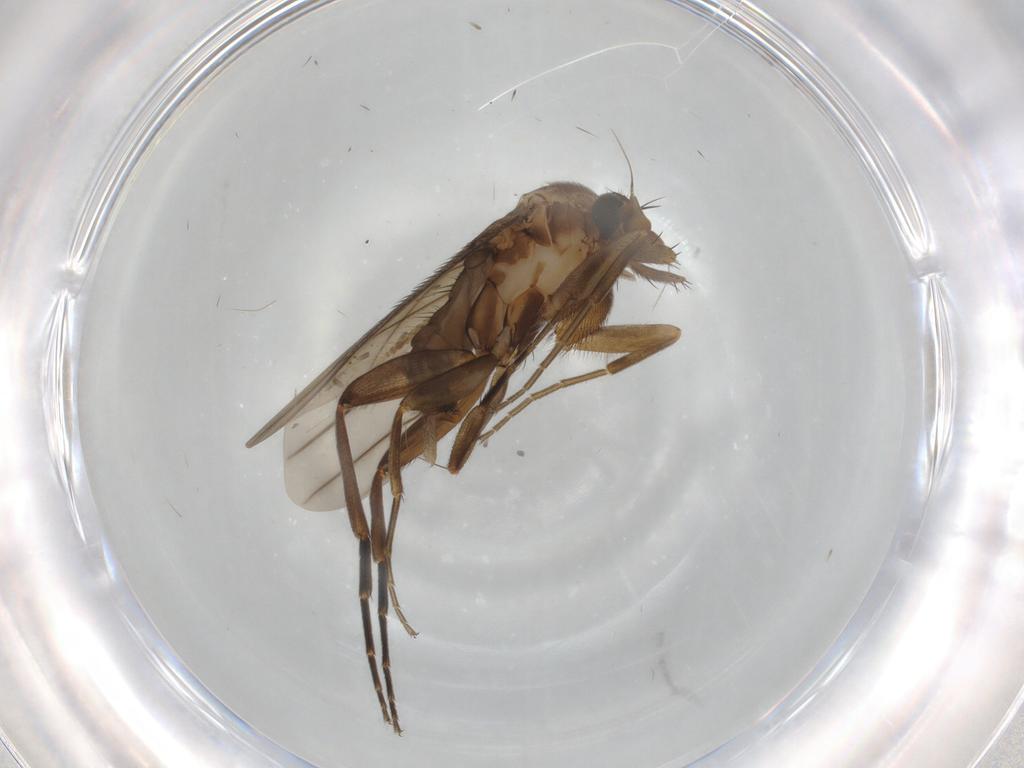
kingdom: Animalia
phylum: Arthropoda
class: Insecta
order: Diptera
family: Phoridae
